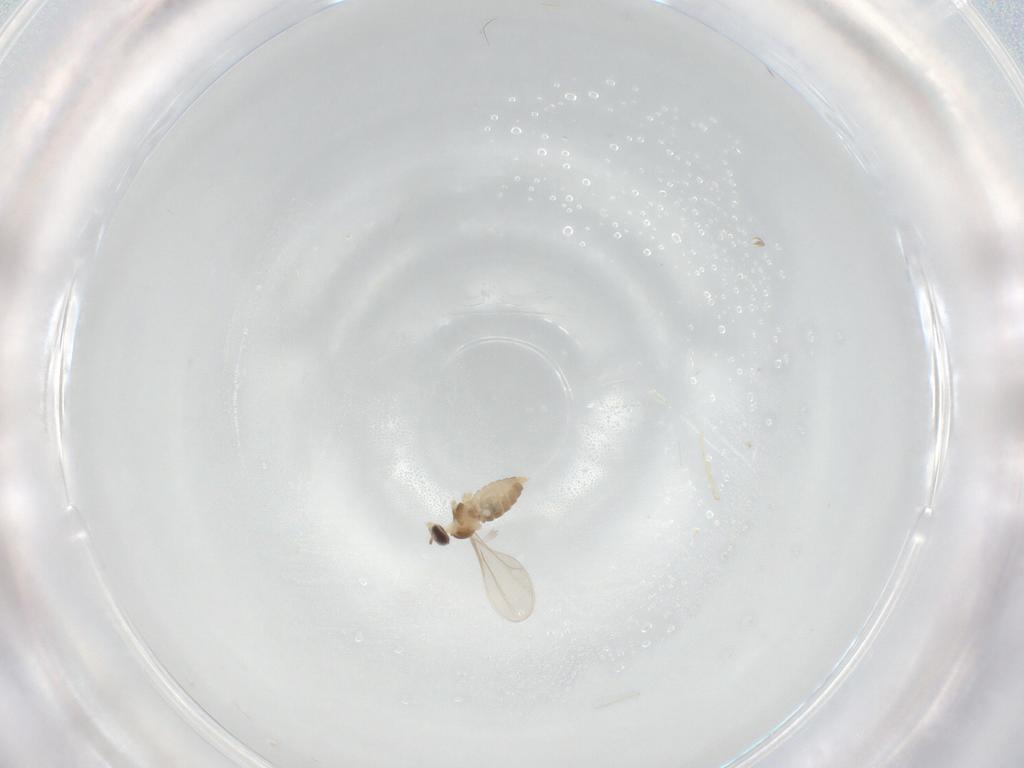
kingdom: Animalia
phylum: Arthropoda
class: Insecta
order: Diptera
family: Cecidomyiidae
